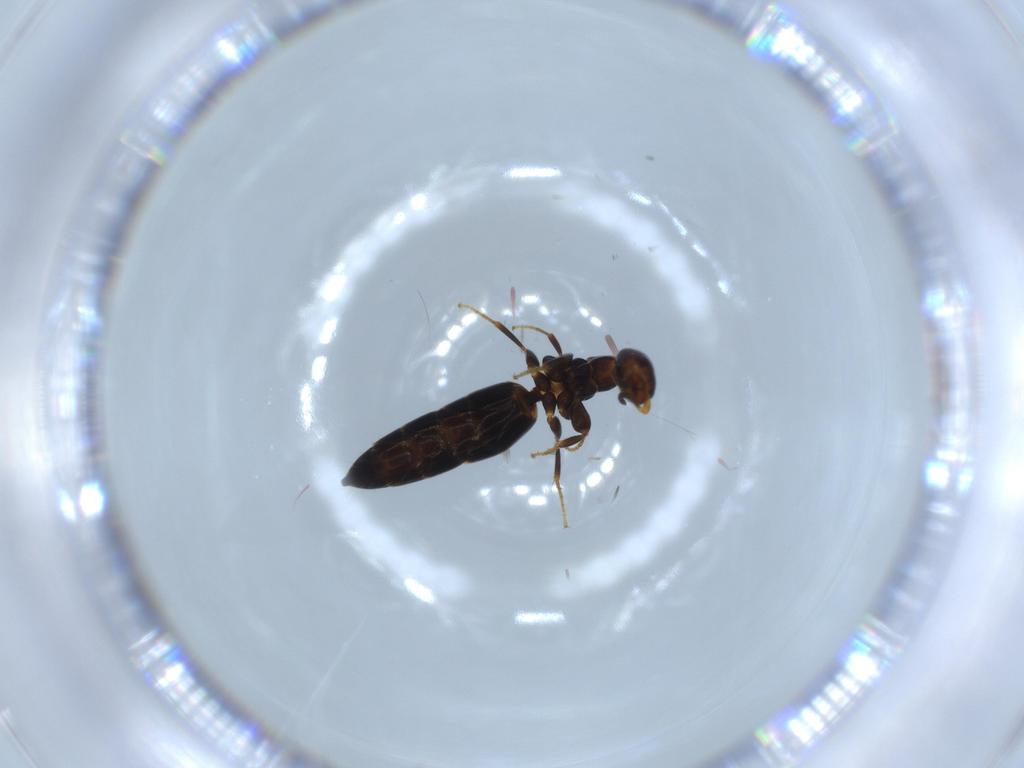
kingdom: Animalia
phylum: Arthropoda
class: Insecta
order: Hymenoptera
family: Bethylidae
